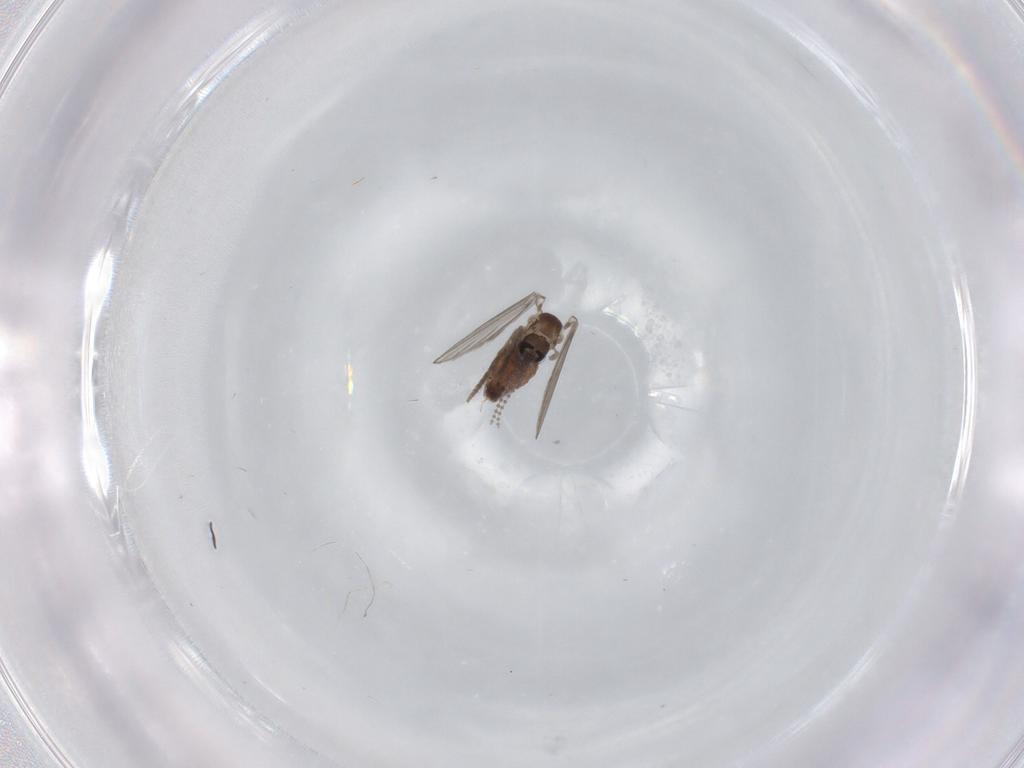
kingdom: Animalia
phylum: Arthropoda
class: Insecta
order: Diptera
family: Psychodidae
